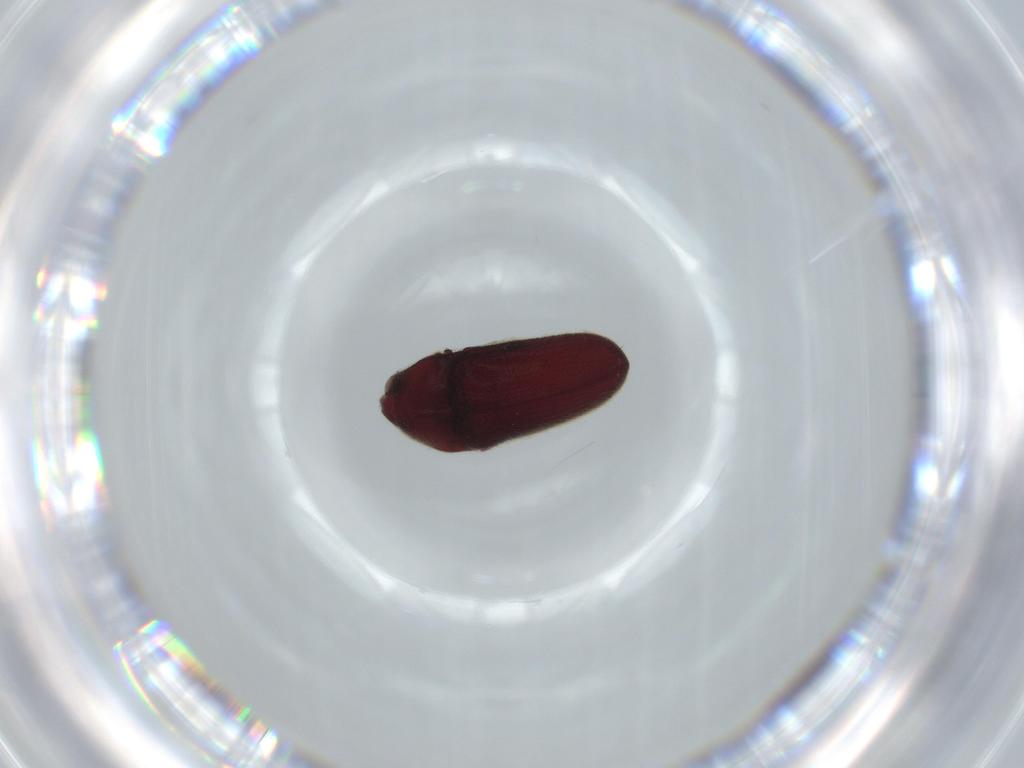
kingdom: Animalia
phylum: Arthropoda
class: Insecta
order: Coleoptera
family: Throscidae
